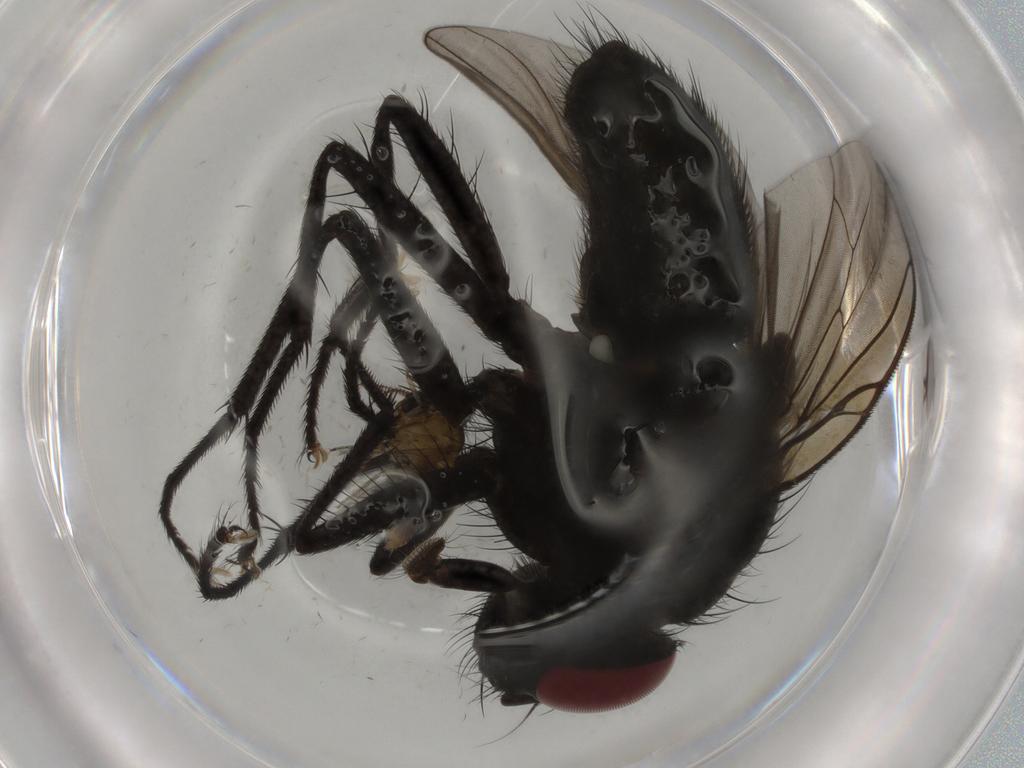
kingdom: Animalia
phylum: Arthropoda
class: Insecta
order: Diptera
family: Muscidae
